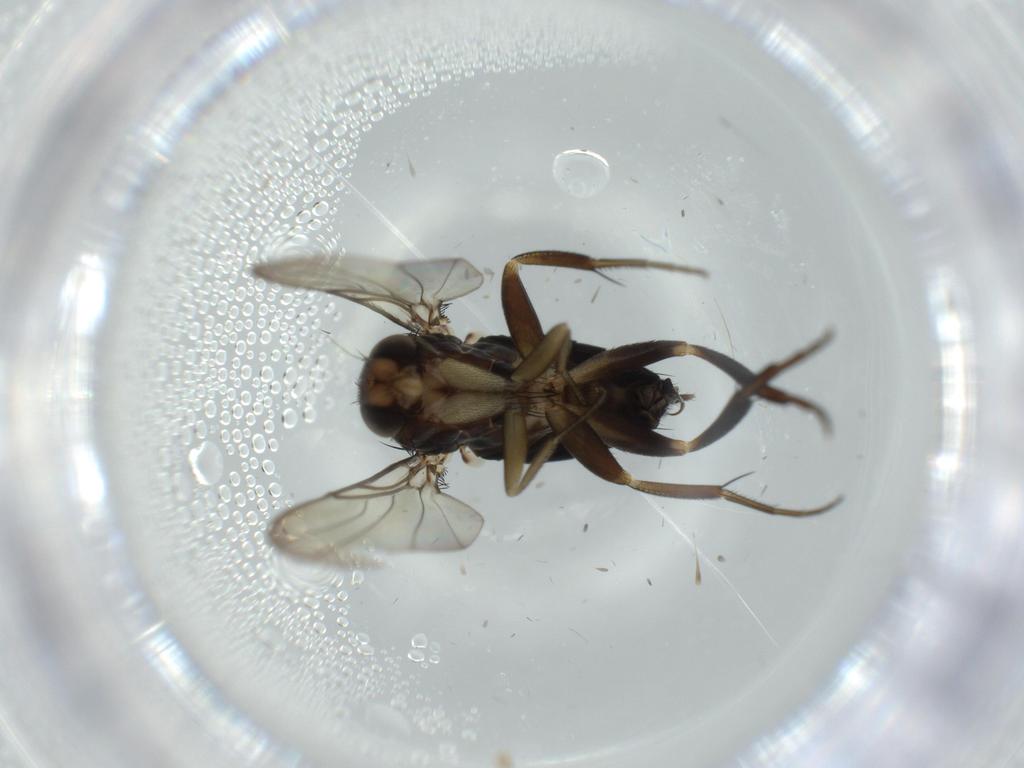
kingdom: Animalia
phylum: Arthropoda
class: Insecta
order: Diptera
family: Phoridae
